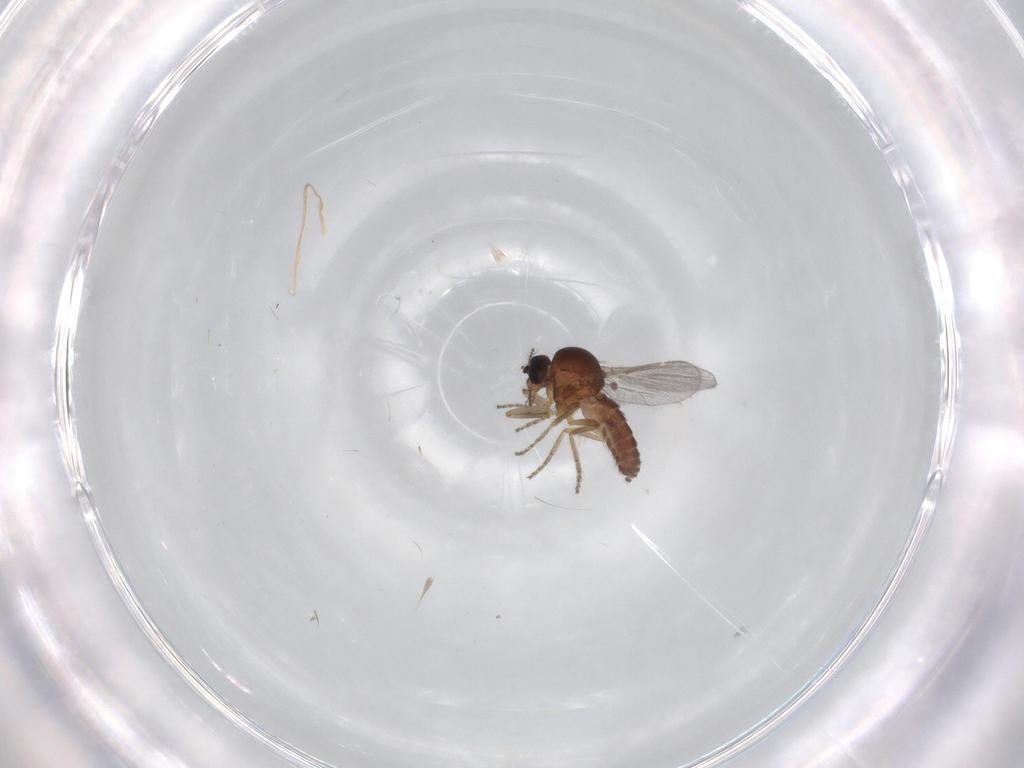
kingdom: Animalia
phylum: Arthropoda
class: Insecta
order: Diptera
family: Ceratopogonidae
